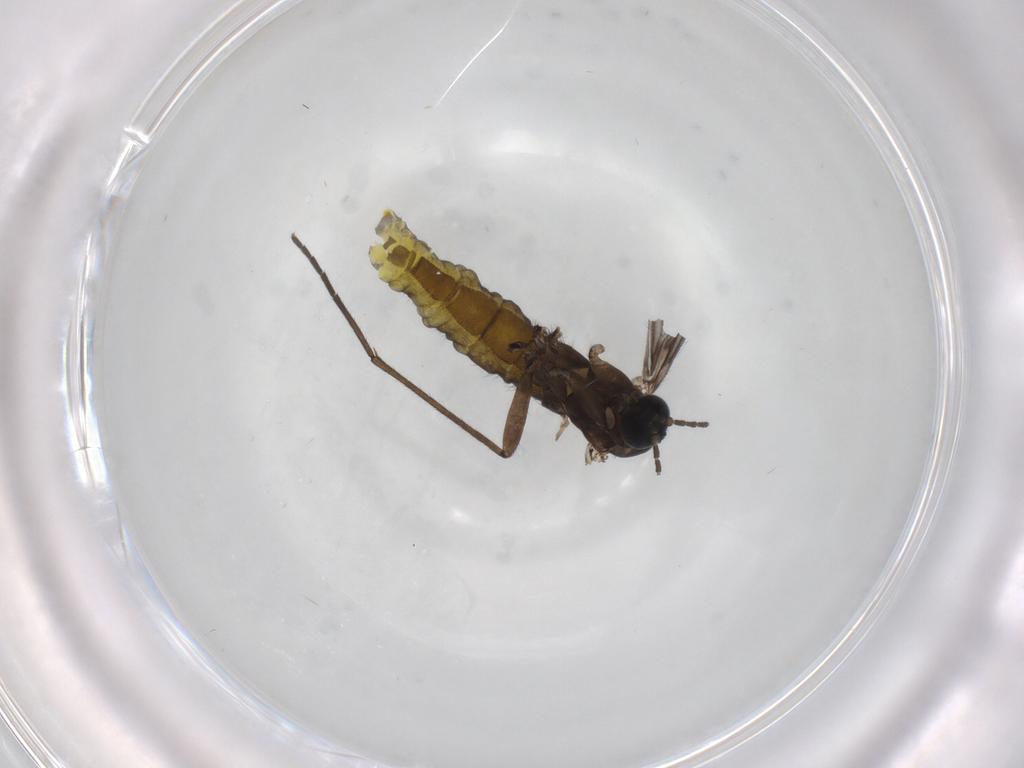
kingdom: Animalia
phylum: Arthropoda
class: Insecta
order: Diptera
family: Sciaridae
